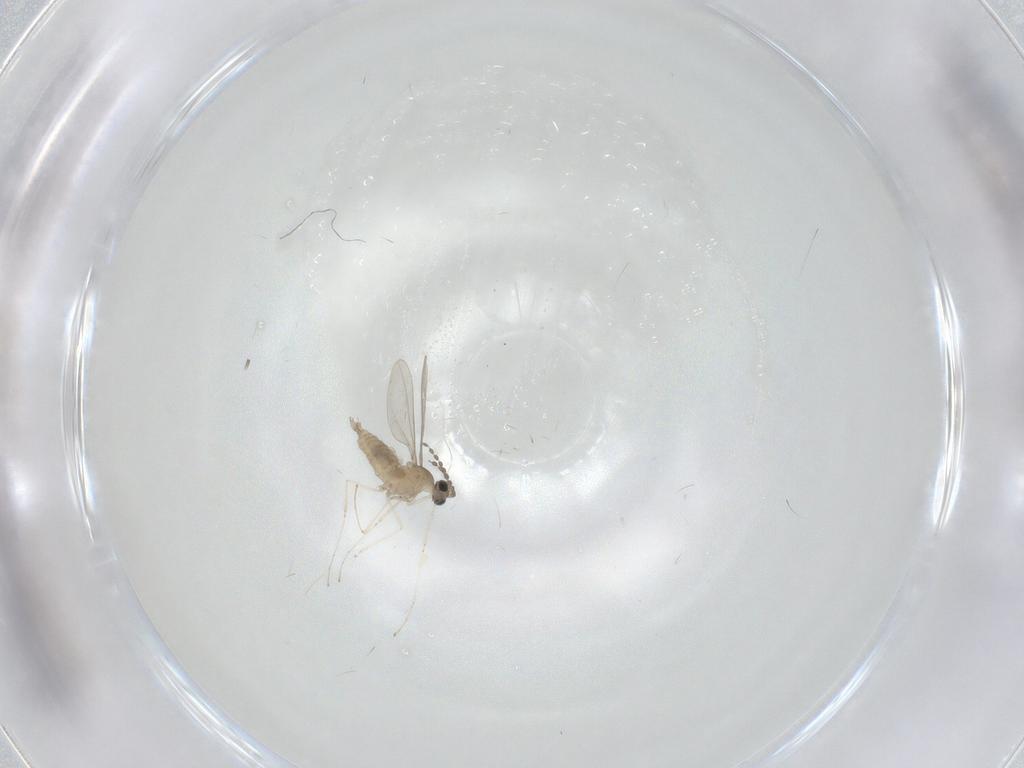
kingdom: Animalia
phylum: Arthropoda
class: Insecta
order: Diptera
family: Cecidomyiidae
